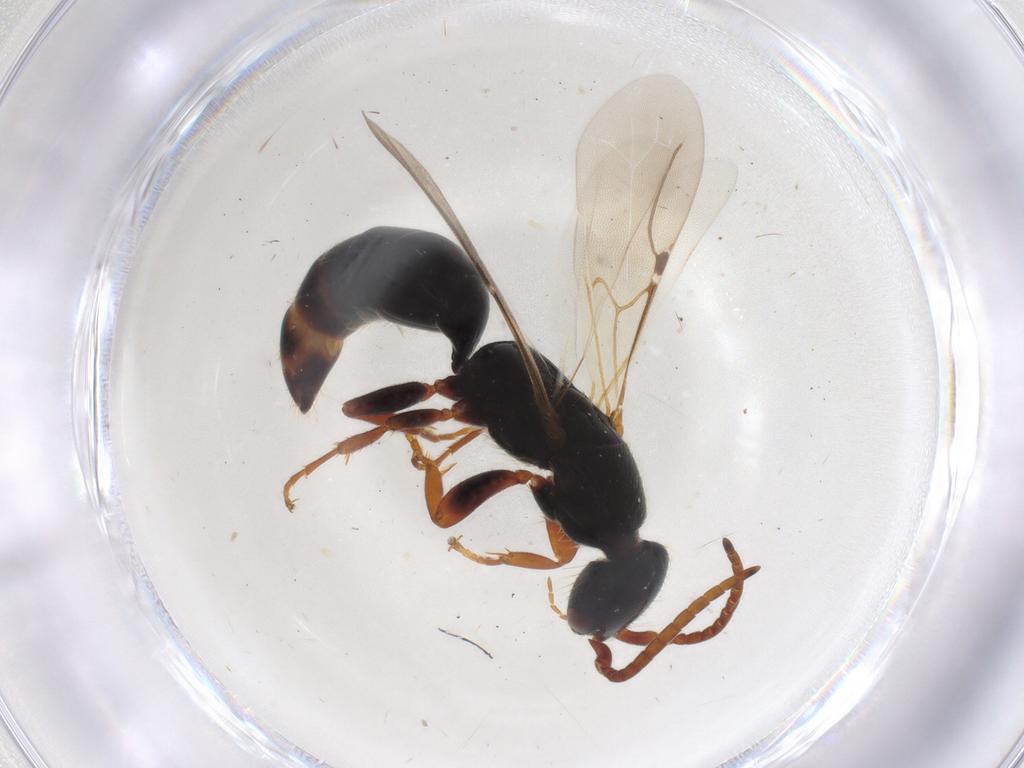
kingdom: Animalia
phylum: Arthropoda
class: Insecta
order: Hymenoptera
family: Bethylidae
